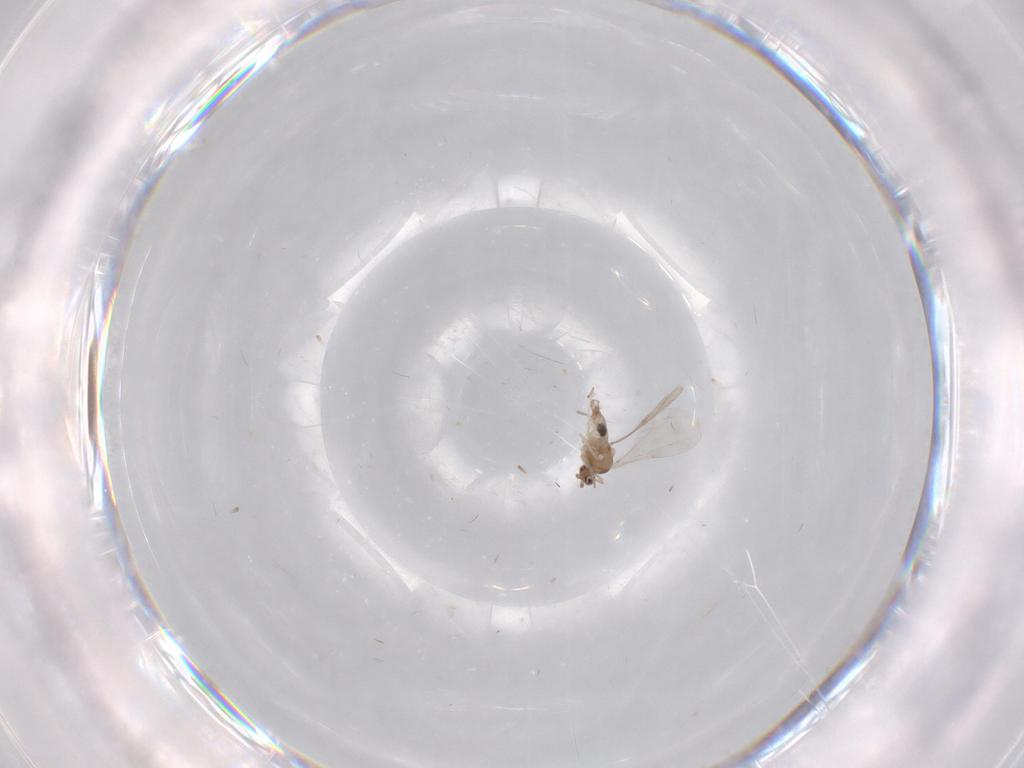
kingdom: Animalia
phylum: Arthropoda
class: Insecta
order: Diptera
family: Cecidomyiidae
